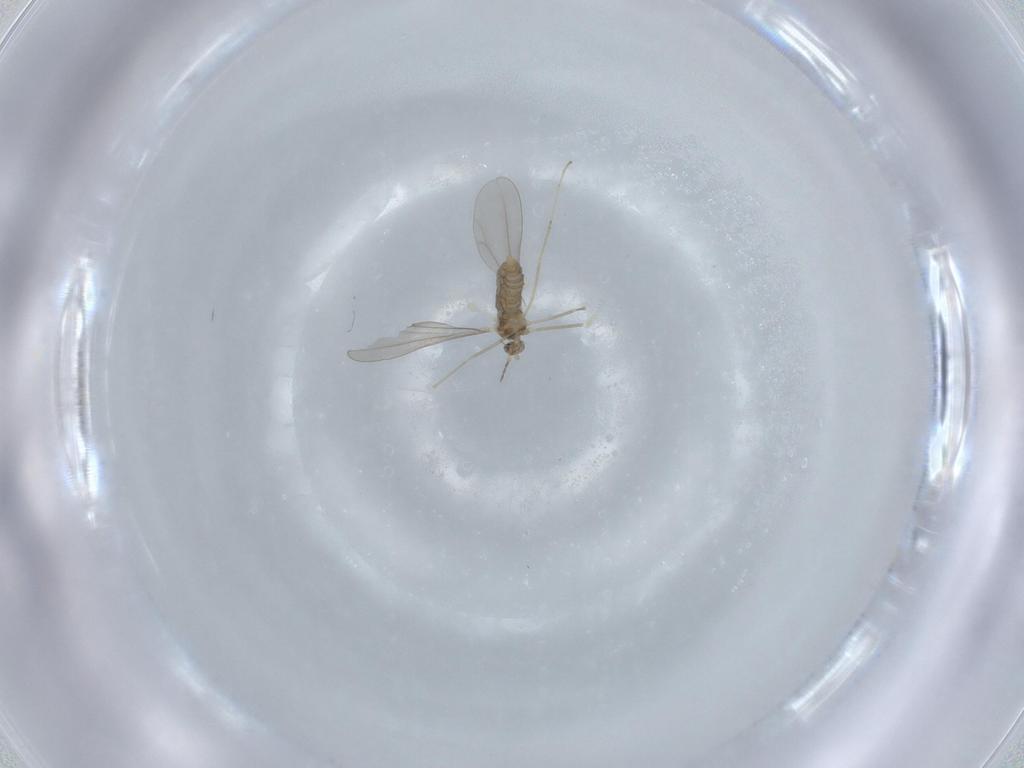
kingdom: Animalia
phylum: Arthropoda
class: Insecta
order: Diptera
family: Cecidomyiidae
